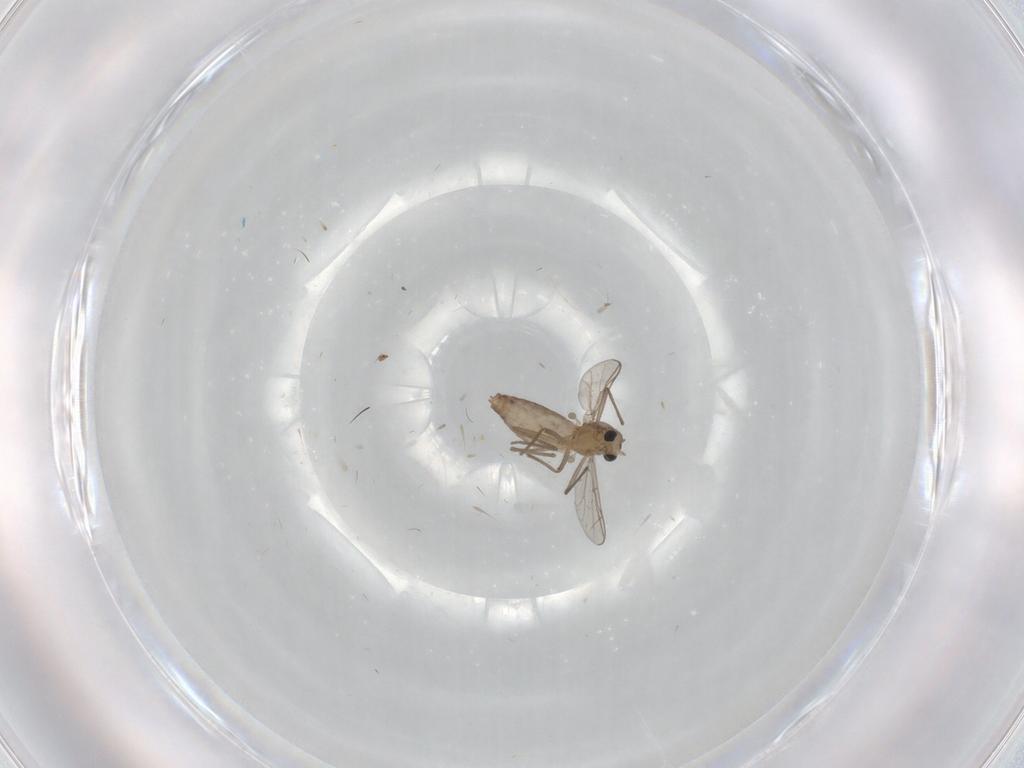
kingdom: Animalia
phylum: Arthropoda
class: Insecta
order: Diptera
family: Chironomidae
